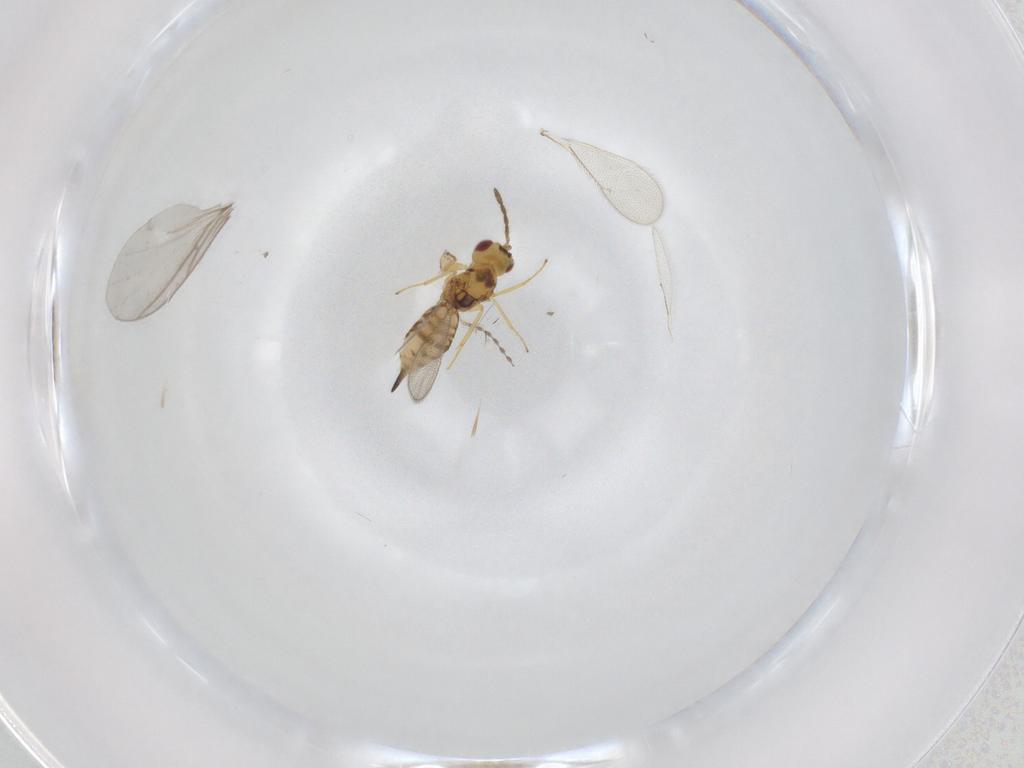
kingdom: Animalia
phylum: Arthropoda
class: Insecta
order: Hymenoptera
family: Eulophidae
